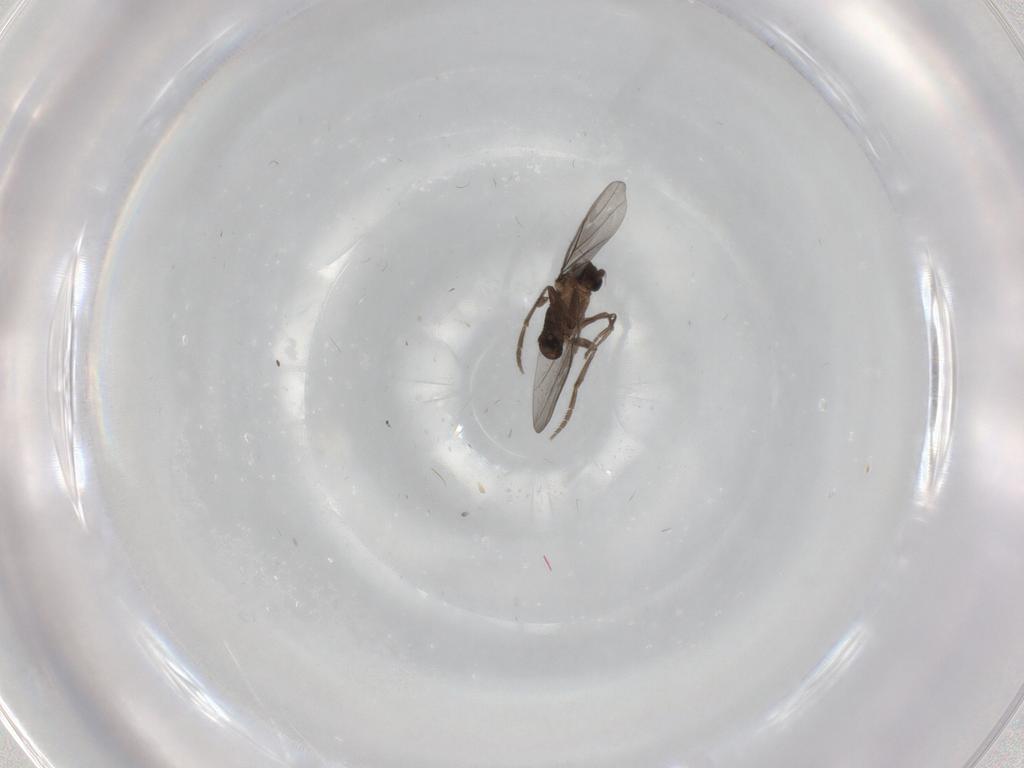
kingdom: Animalia
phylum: Arthropoda
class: Insecta
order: Diptera
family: Sciaridae
